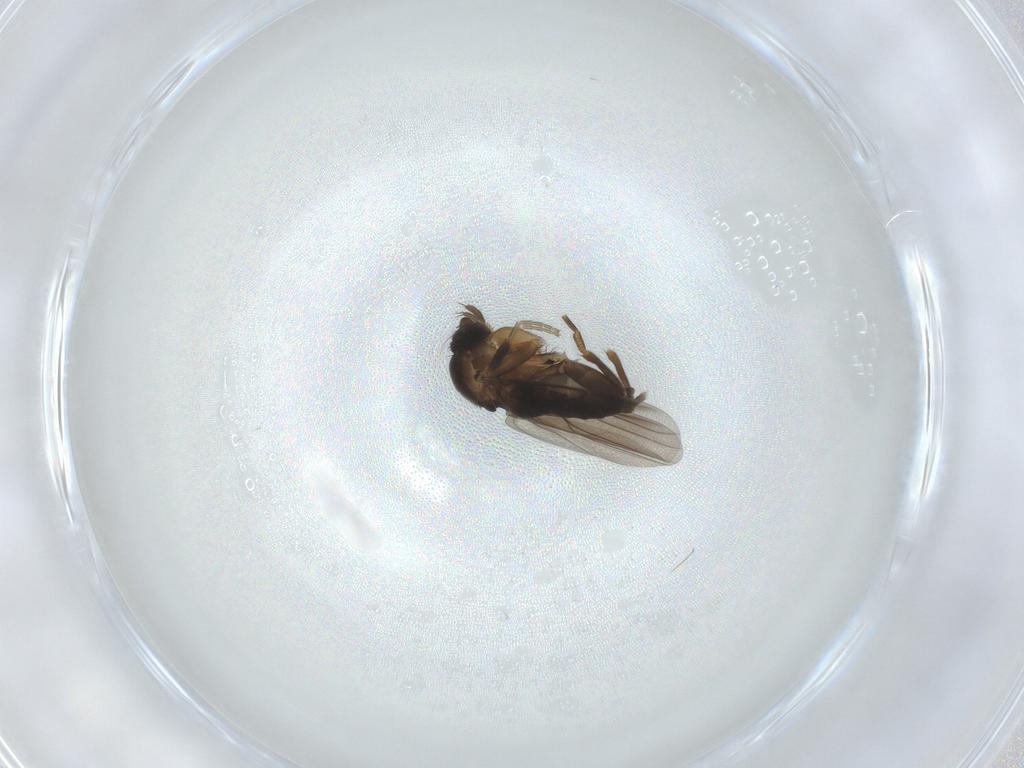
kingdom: Animalia
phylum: Arthropoda
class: Insecta
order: Diptera
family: Phoridae
